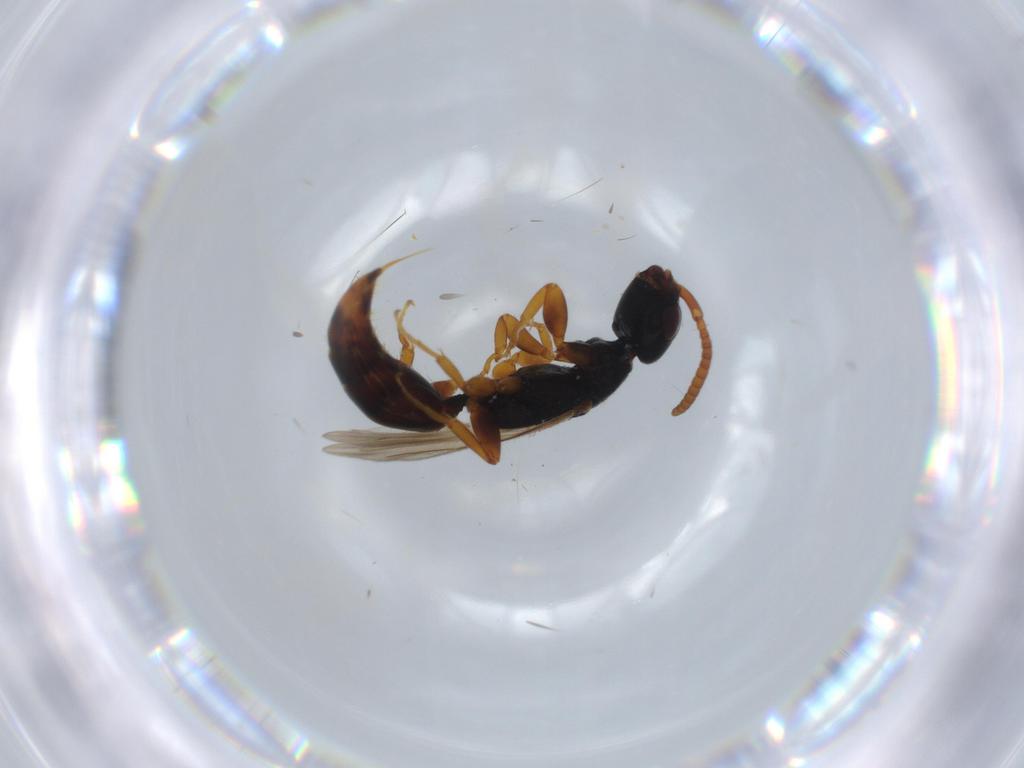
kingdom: Animalia
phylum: Arthropoda
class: Insecta
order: Hymenoptera
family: Bethylidae
